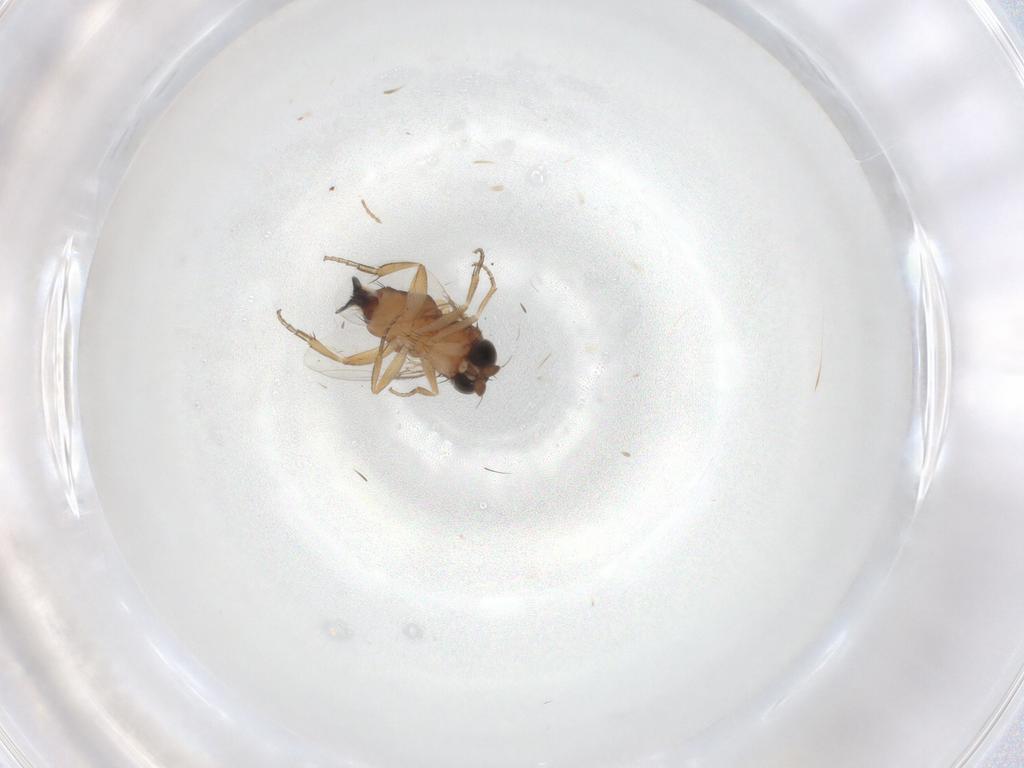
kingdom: Animalia
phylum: Arthropoda
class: Insecta
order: Diptera
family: Phoridae
